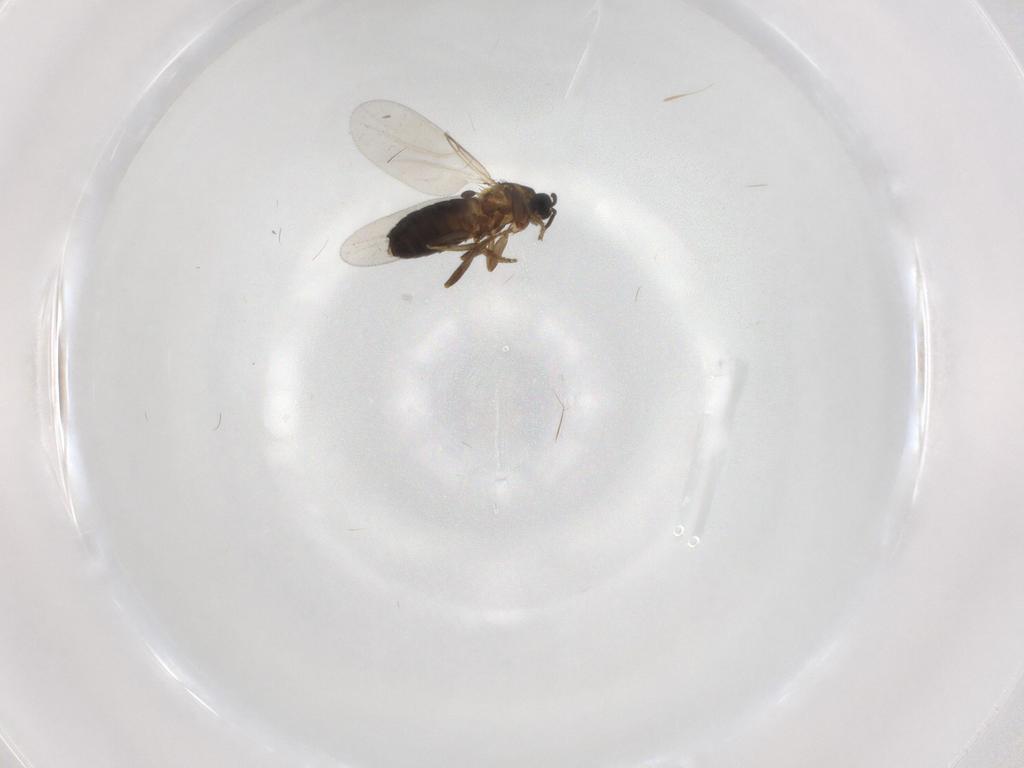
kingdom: Animalia
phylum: Arthropoda
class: Insecta
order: Diptera
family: Scatopsidae
